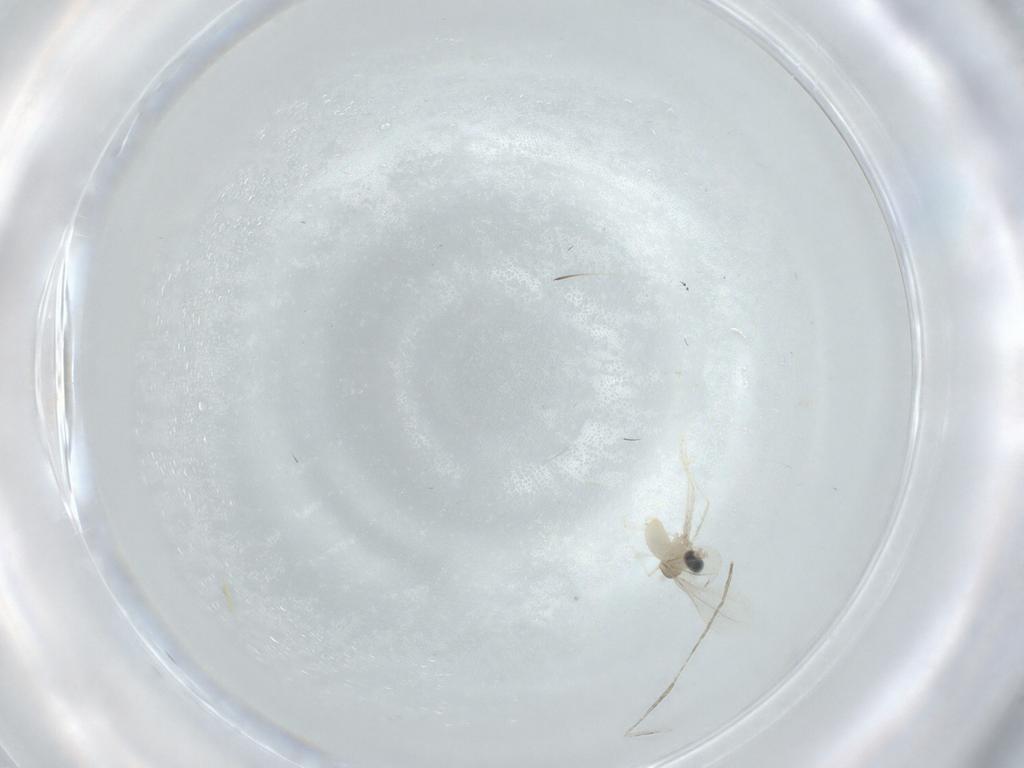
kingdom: Animalia
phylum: Arthropoda
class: Insecta
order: Diptera
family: Cecidomyiidae
